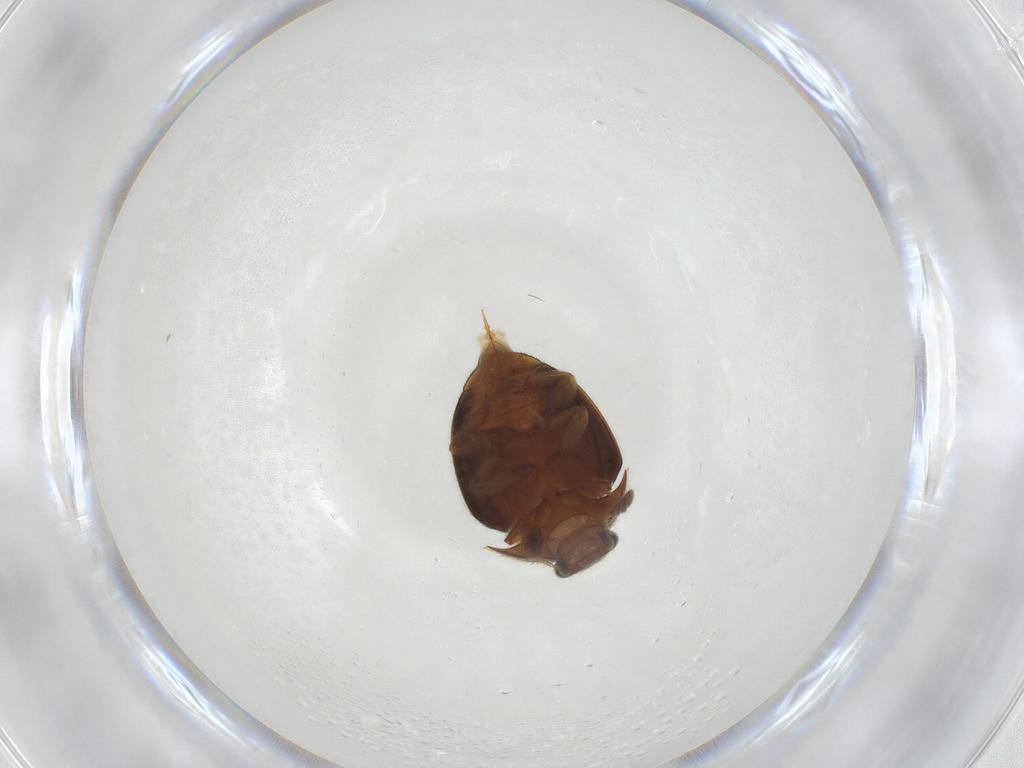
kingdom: Animalia
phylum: Arthropoda
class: Insecta
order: Coleoptera
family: Nitidulidae
